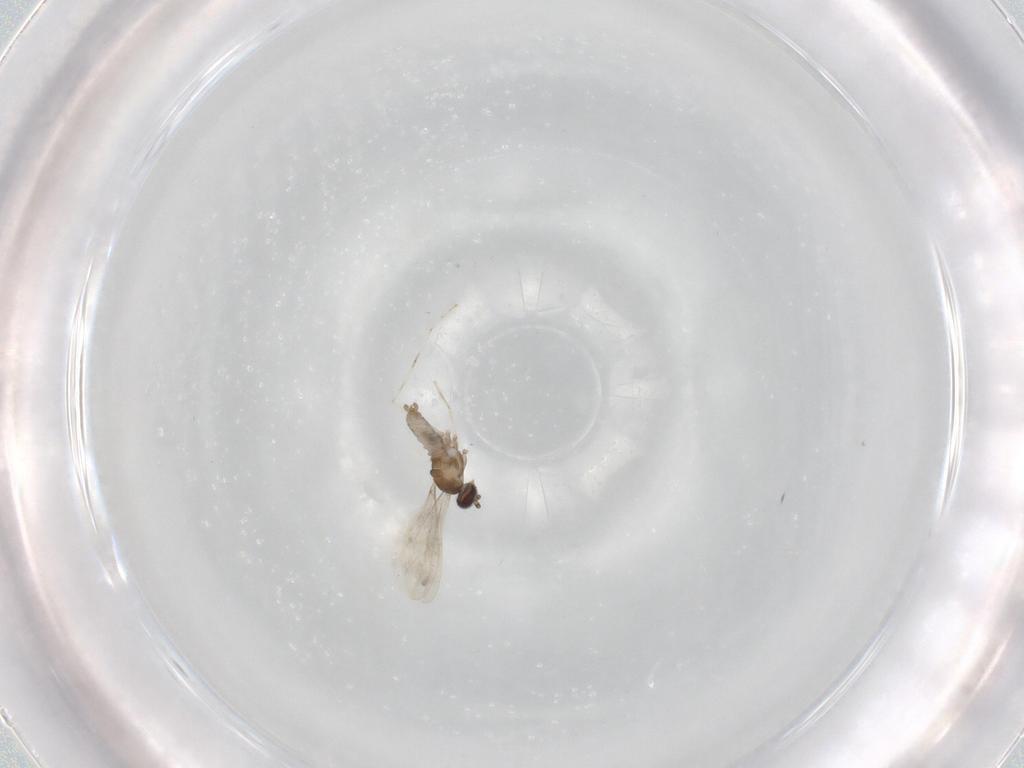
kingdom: Animalia
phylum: Arthropoda
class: Insecta
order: Diptera
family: Cecidomyiidae
